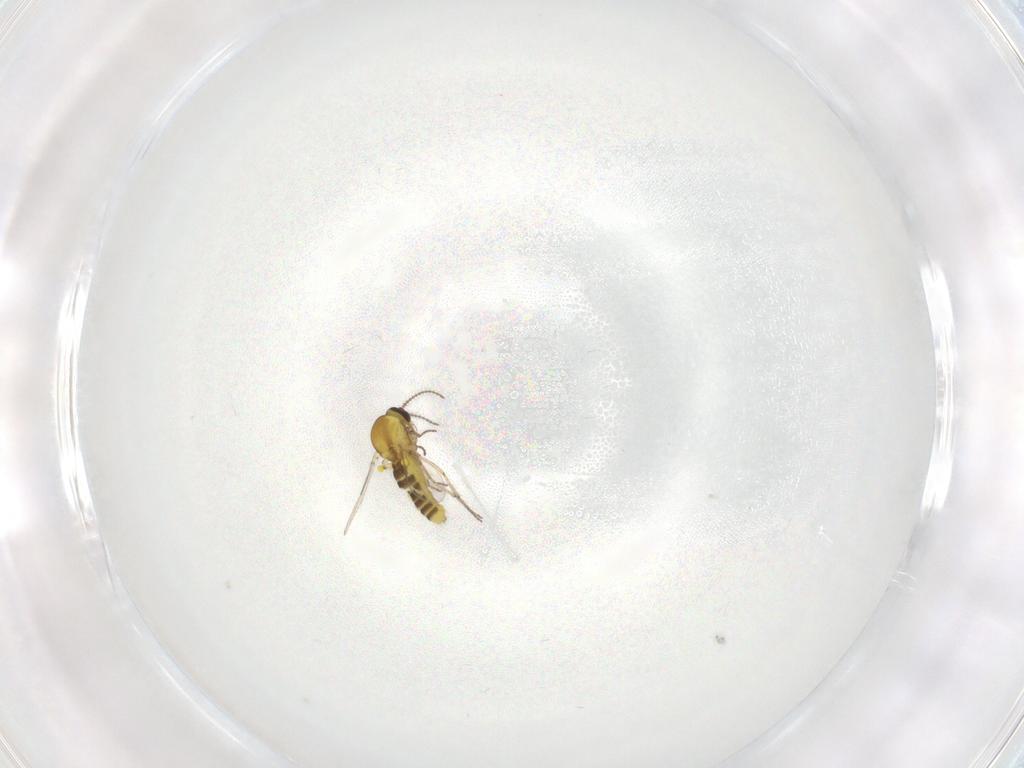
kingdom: Animalia
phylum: Arthropoda
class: Insecta
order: Diptera
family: Ceratopogonidae
